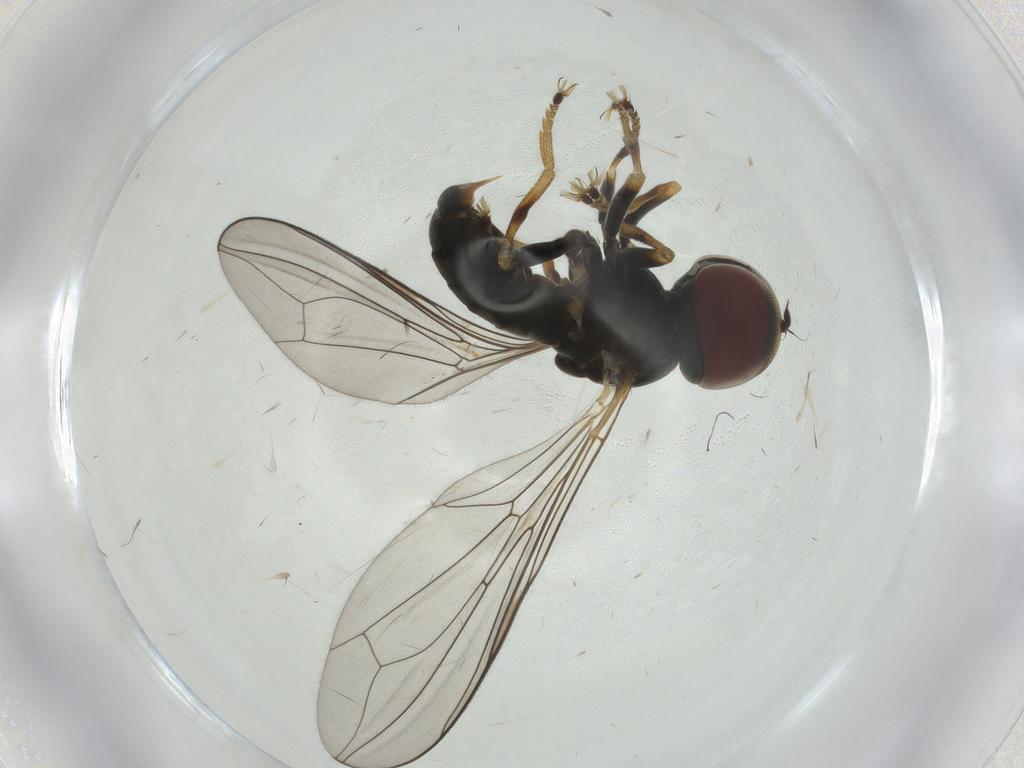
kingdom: Animalia
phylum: Arthropoda
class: Insecta
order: Diptera
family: Pipunculidae
